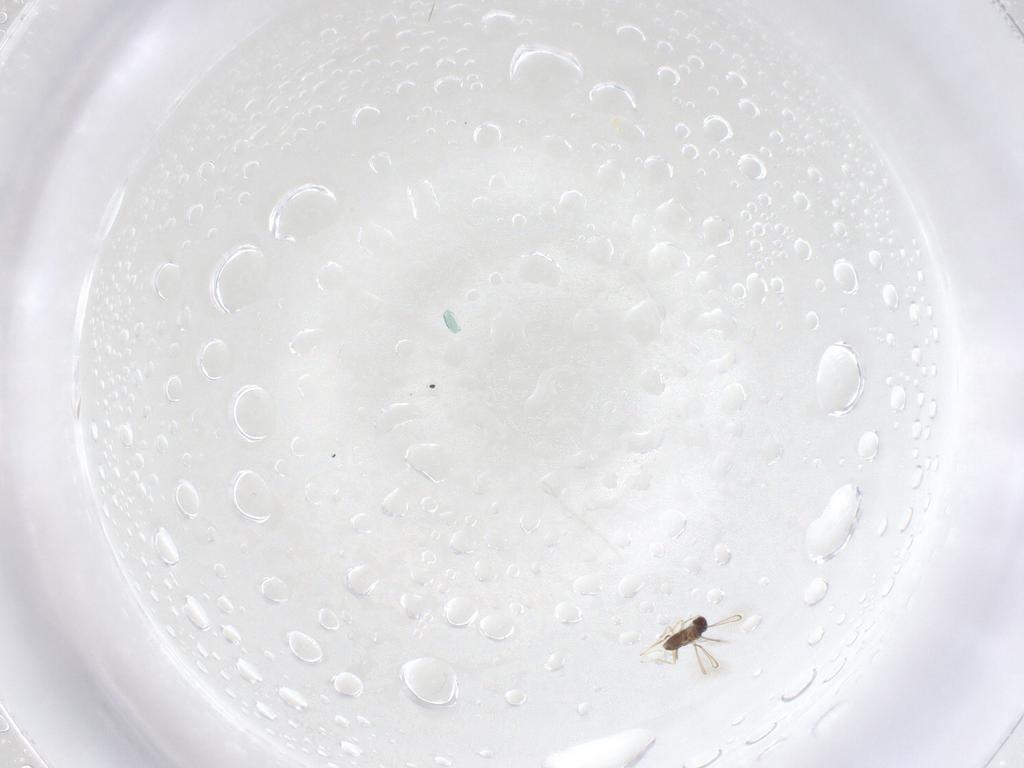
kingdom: Animalia
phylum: Arthropoda
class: Insecta
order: Hymenoptera
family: Mymaridae
